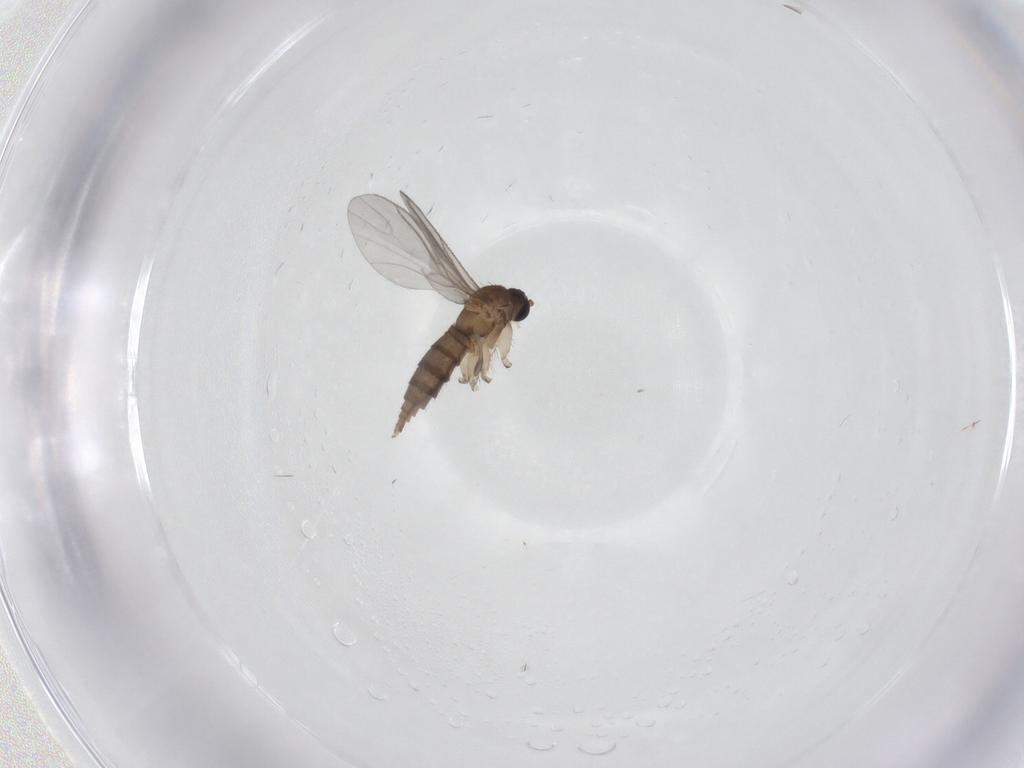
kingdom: Animalia
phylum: Arthropoda
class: Insecta
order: Diptera
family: Sciaridae
